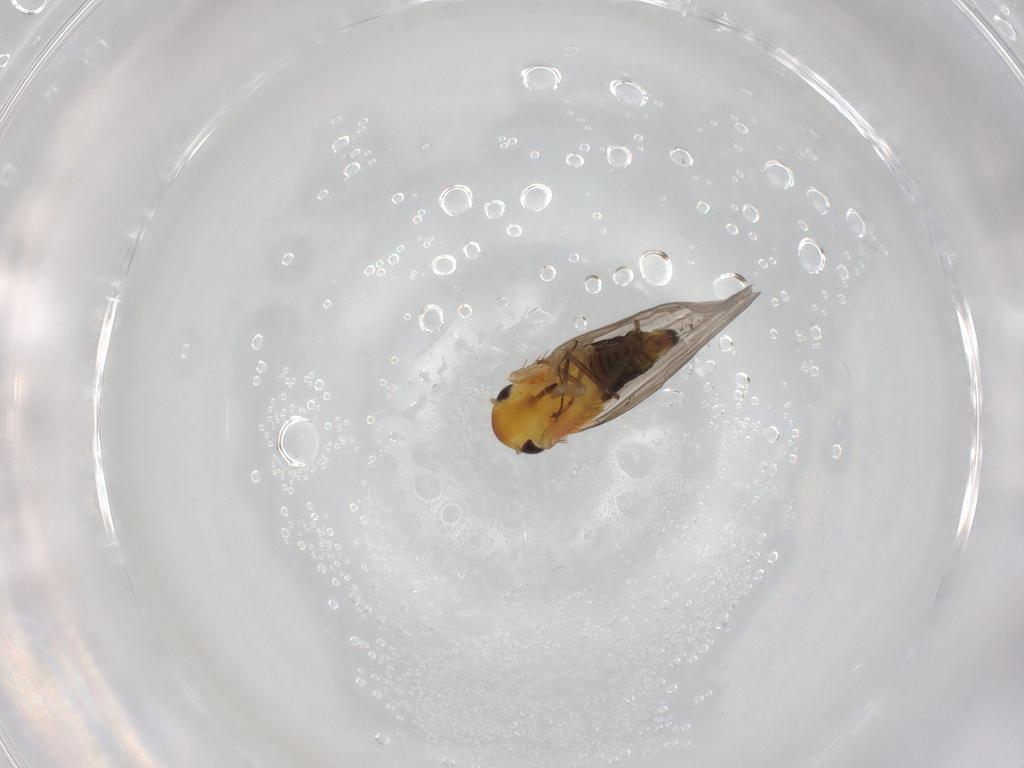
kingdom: Animalia
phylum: Arthropoda
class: Insecta
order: Hemiptera
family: Cicadellidae
